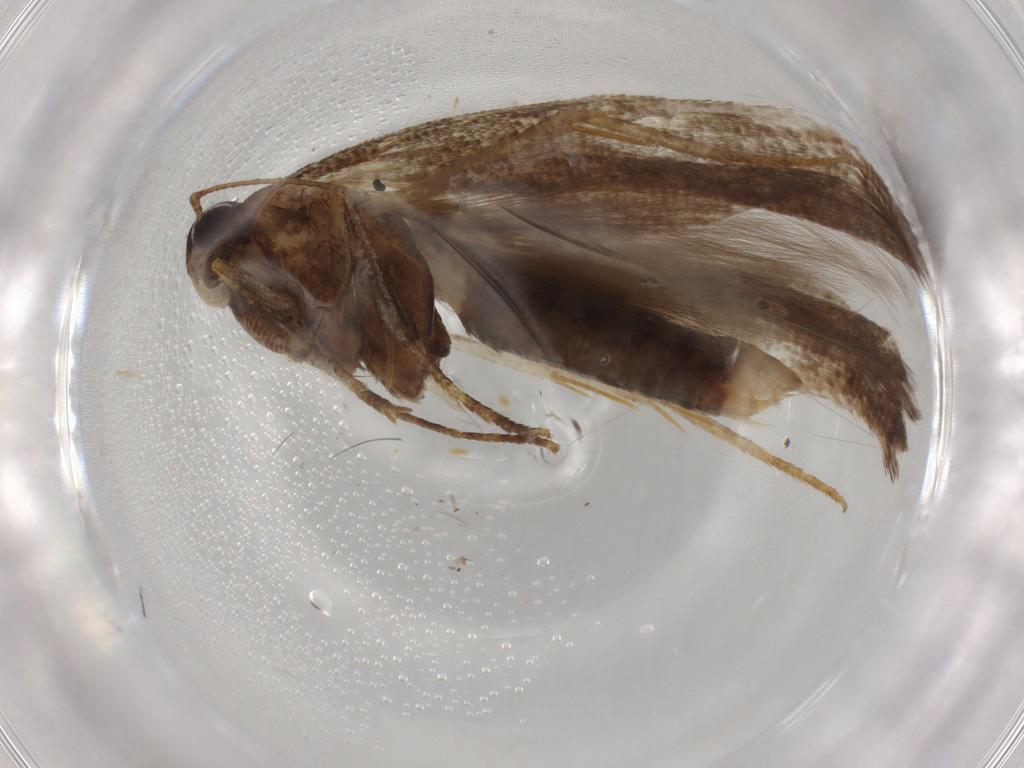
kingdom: Animalia
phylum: Arthropoda
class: Insecta
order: Lepidoptera
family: Gelechiidae
